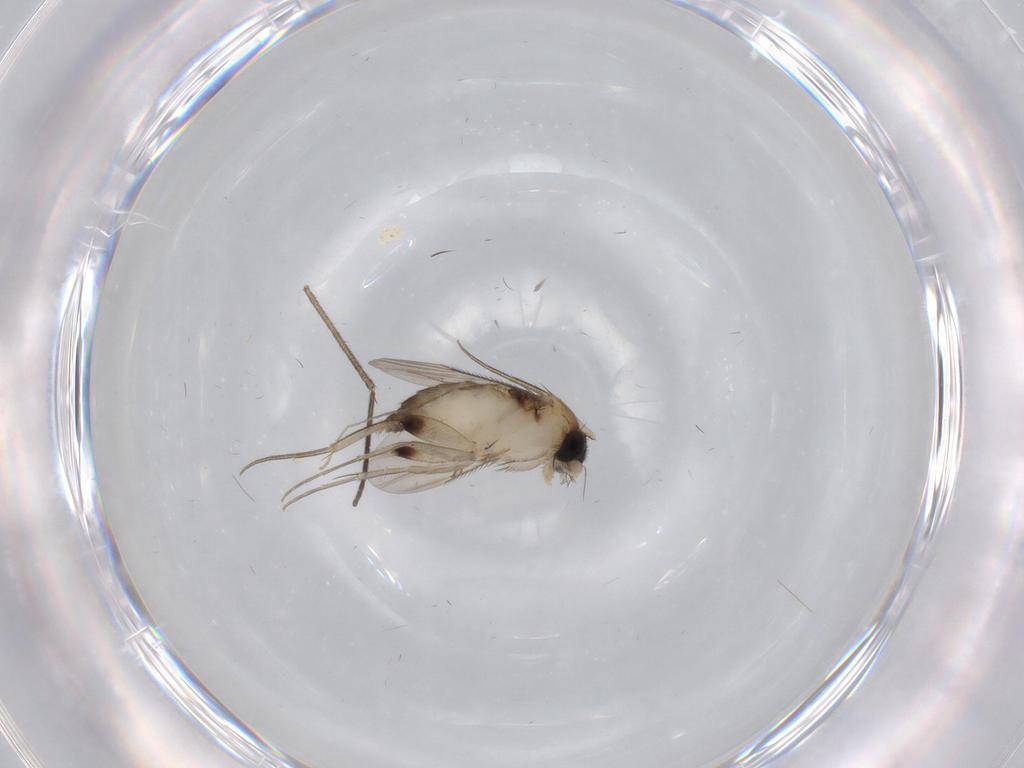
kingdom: Animalia
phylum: Arthropoda
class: Insecta
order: Diptera
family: Phoridae
